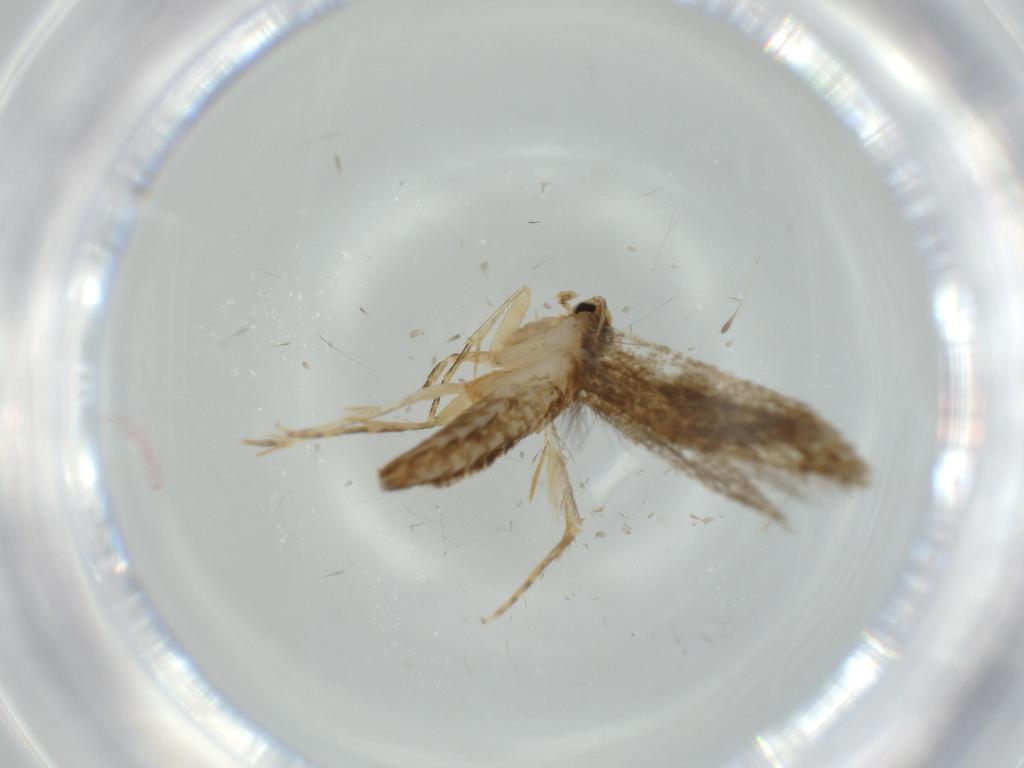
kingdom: Animalia
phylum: Arthropoda
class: Insecta
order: Lepidoptera
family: Tineidae
